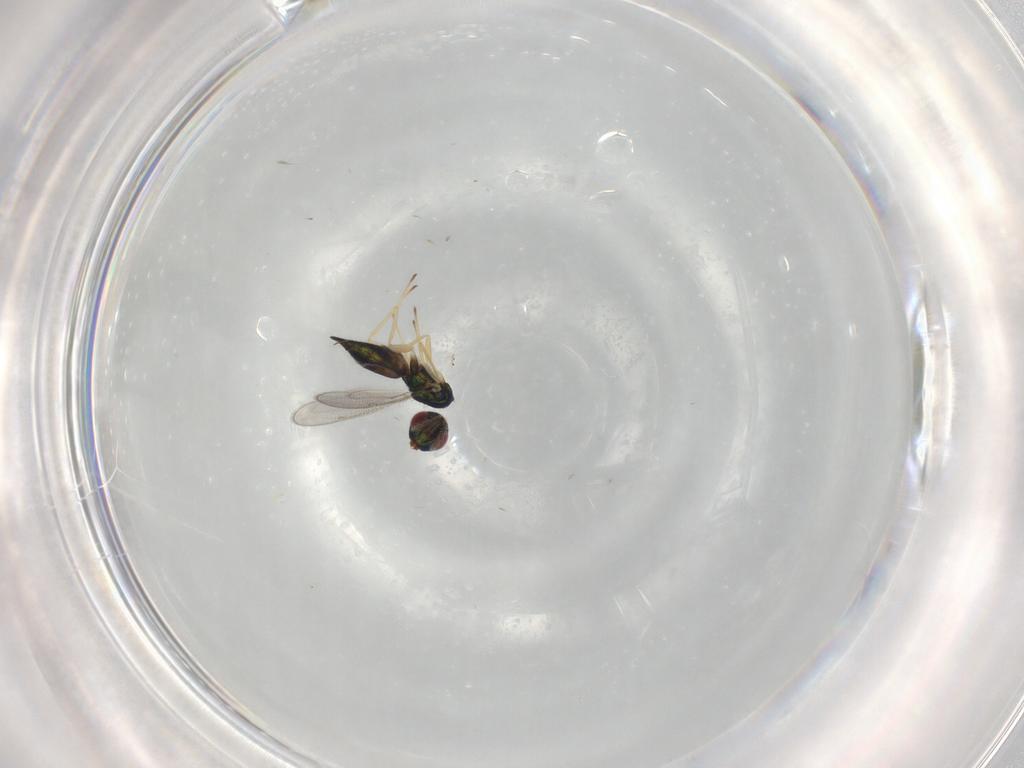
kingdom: Animalia
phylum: Arthropoda
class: Insecta
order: Hymenoptera
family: Eulophidae
